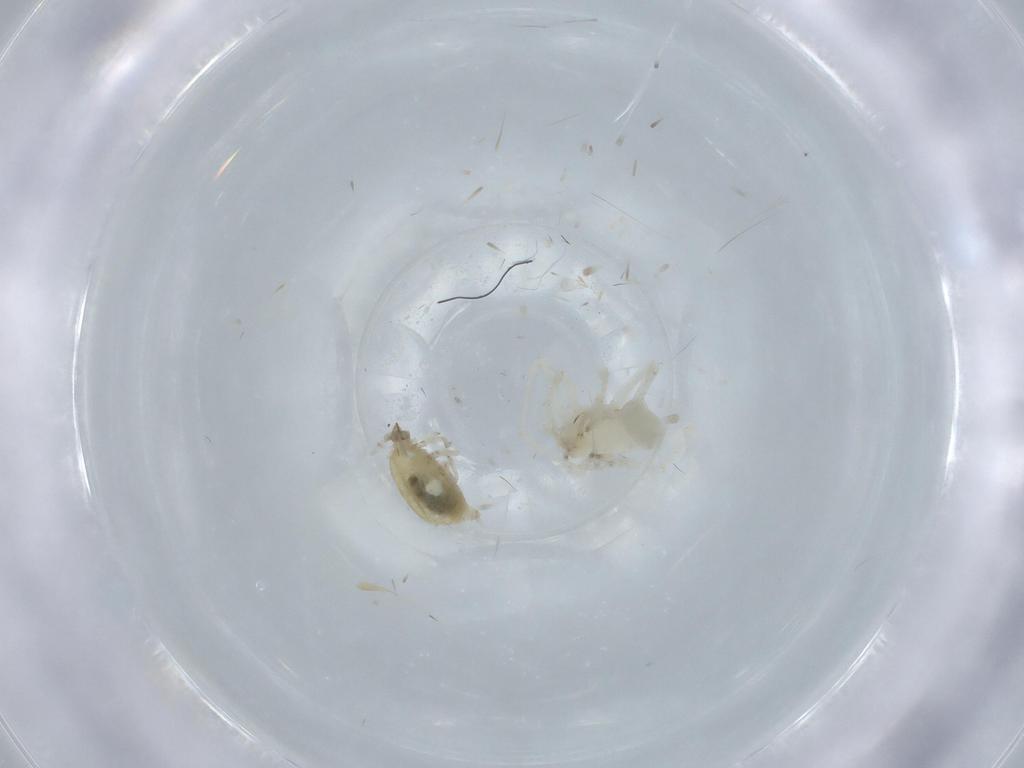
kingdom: Animalia
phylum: Arthropoda
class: Insecta
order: Neuroptera
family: Coniopterygidae
